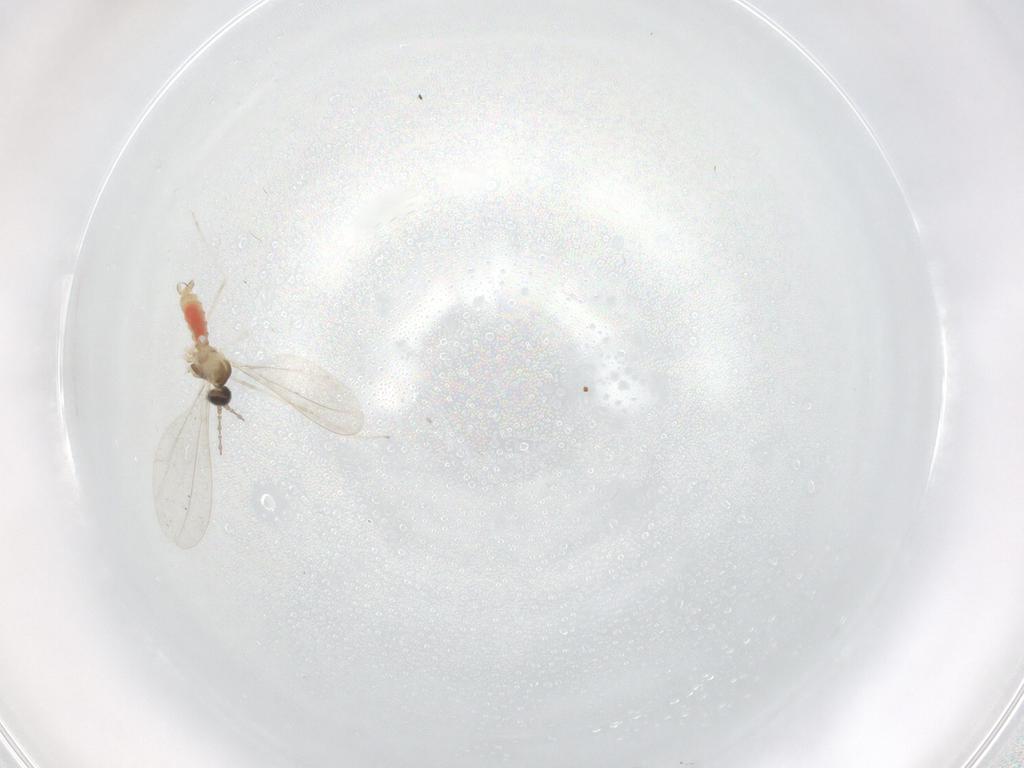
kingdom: Animalia
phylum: Arthropoda
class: Insecta
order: Diptera
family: Cecidomyiidae
